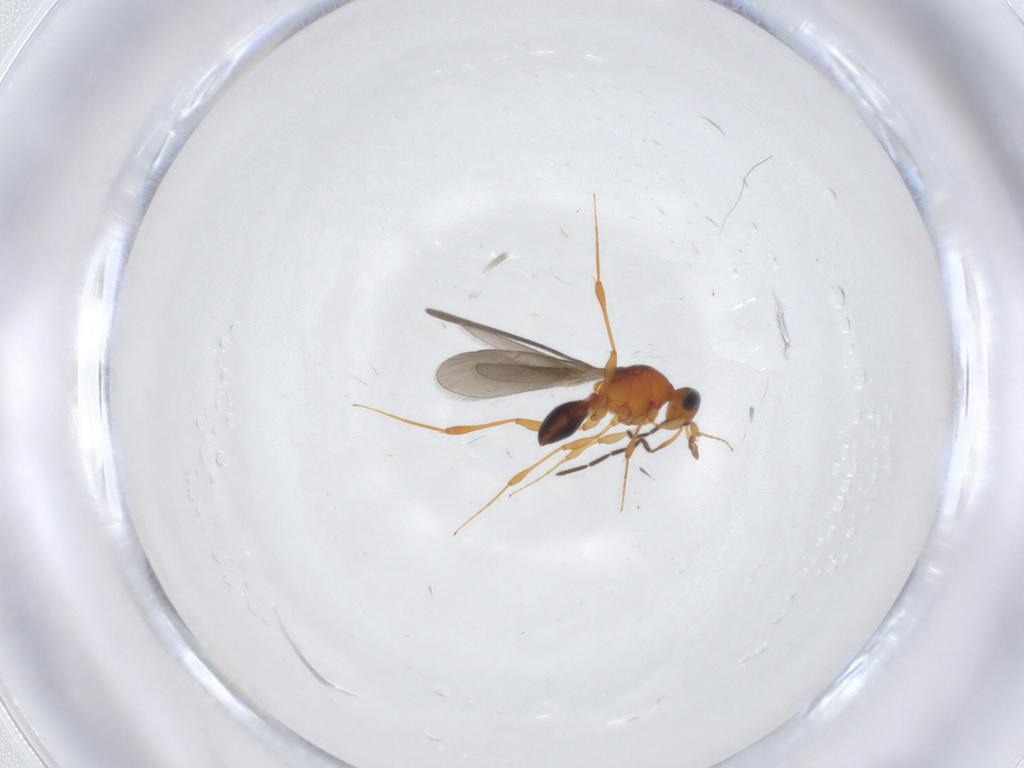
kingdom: Animalia
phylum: Arthropoda
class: Insecta
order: Hymenoptera
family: Platygastridae
